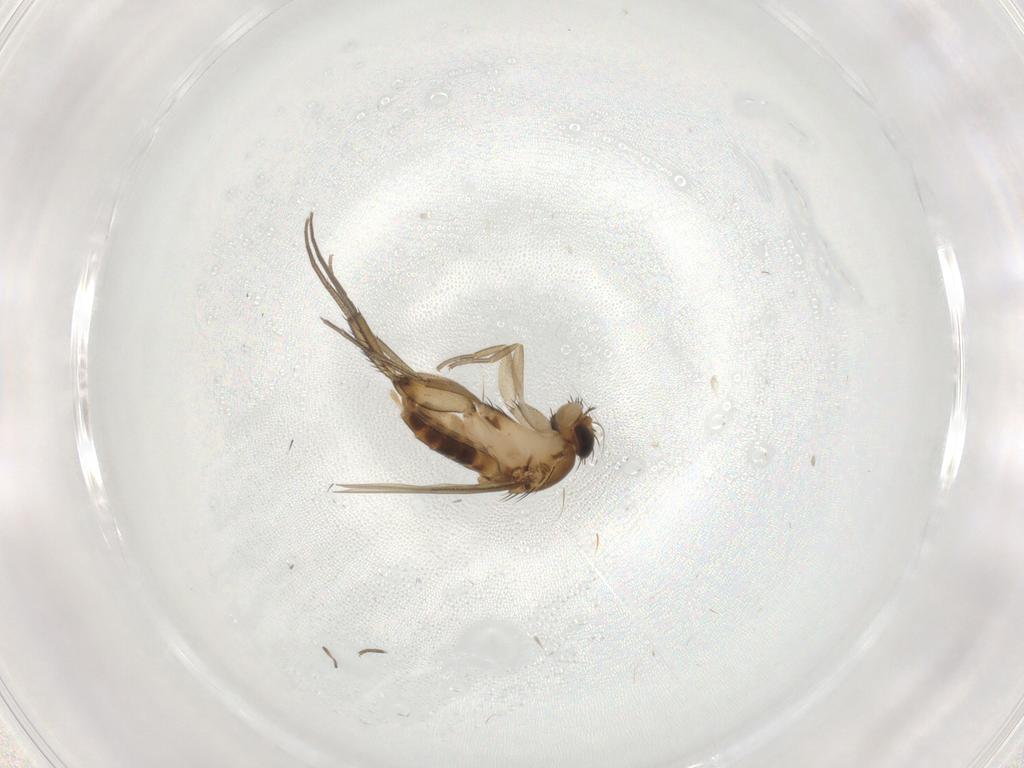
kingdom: Animalia
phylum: Arthropoda
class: Insecta
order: Diptera
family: Phoridae
